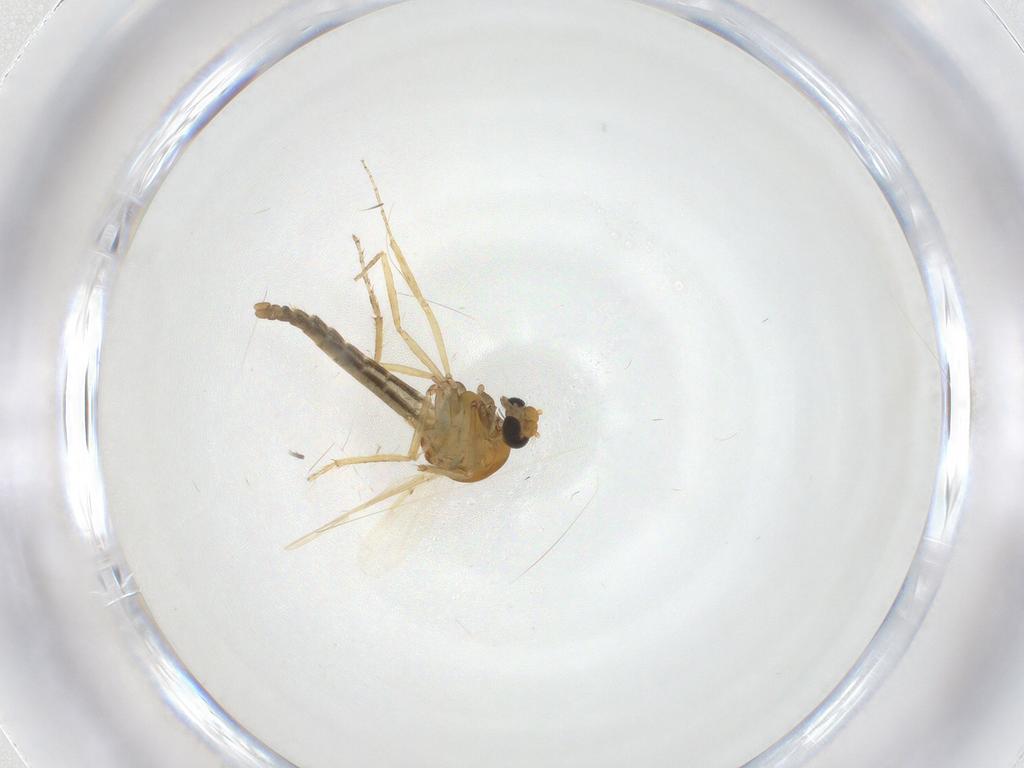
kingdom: Animalia
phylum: Arthropoda
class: Insecta
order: Diptera
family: Ceratopogonidae
